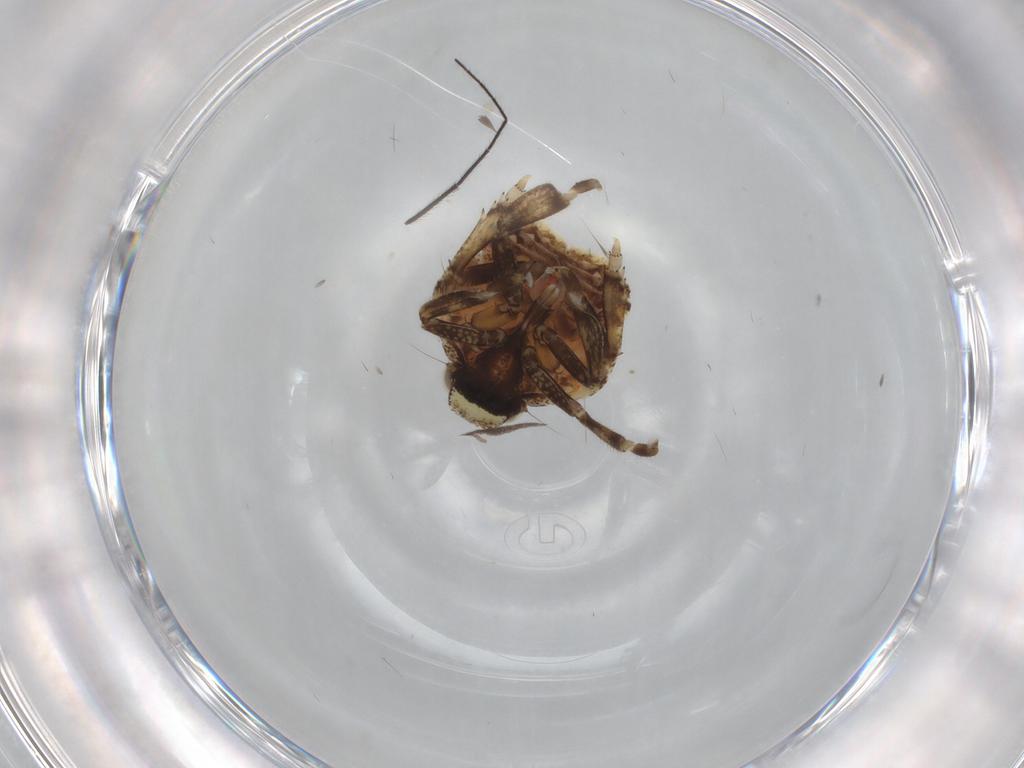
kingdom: Animalia
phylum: Arthropoda
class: Insecta
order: Hemiptera
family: Issidae
